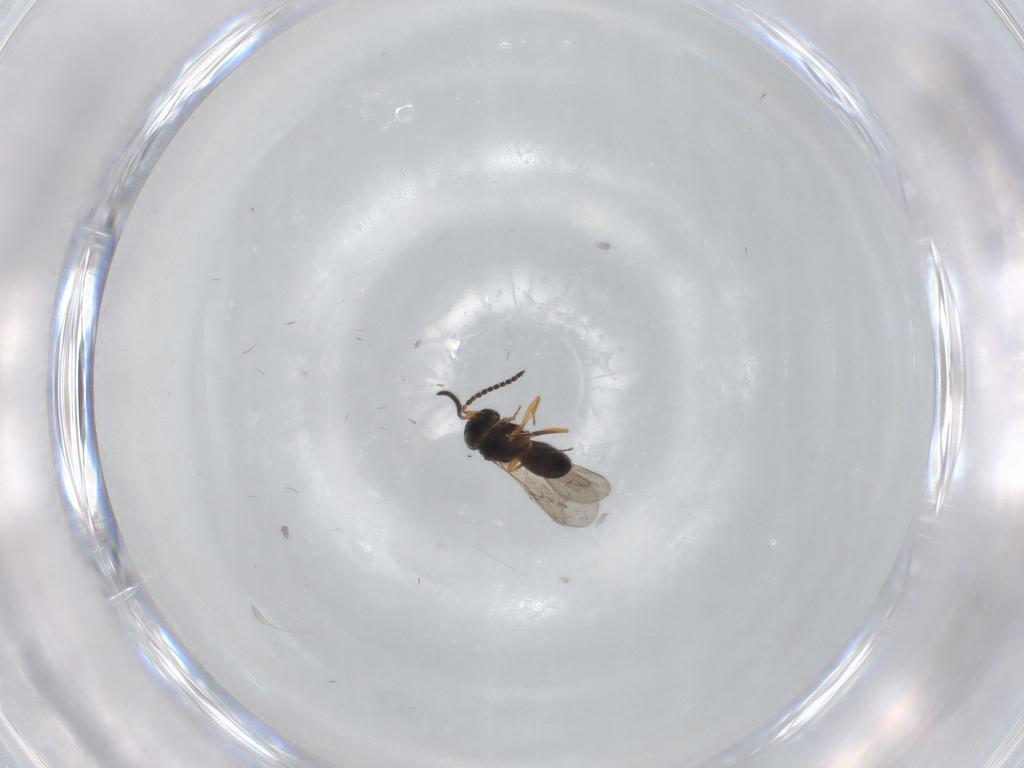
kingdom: Animalia
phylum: Arthropoda
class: Insecta
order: Hymenoptera
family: Scelionidae
